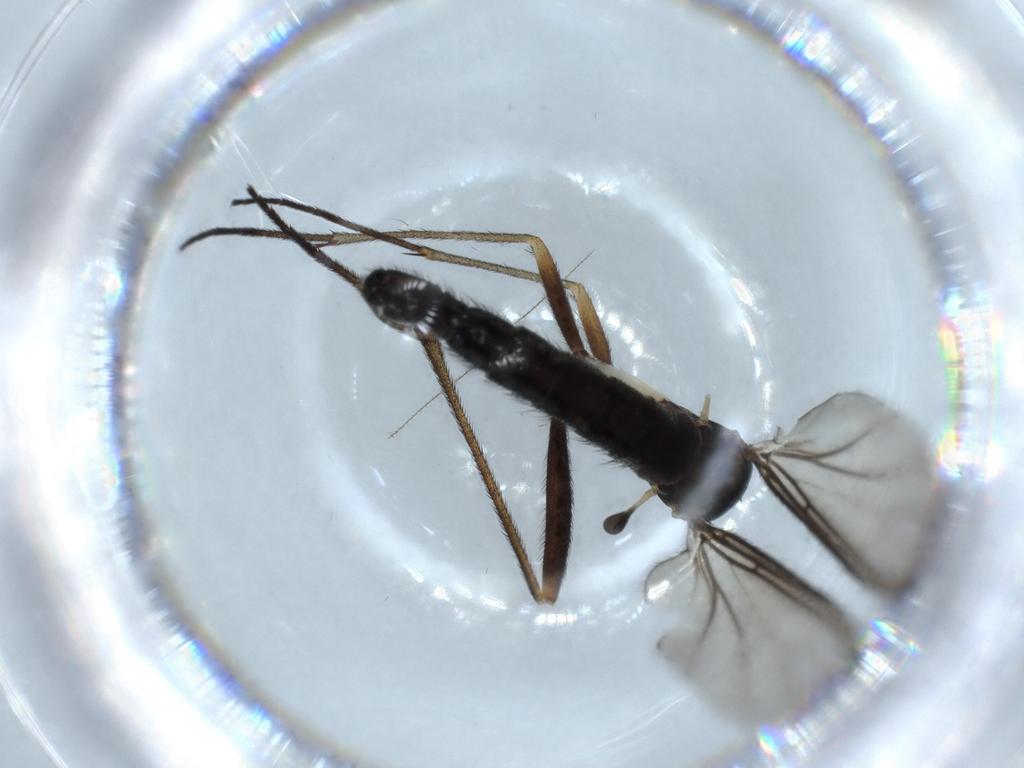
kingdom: Animalia
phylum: Arthropoda
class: Insecta
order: Diptera
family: Sciaridae
